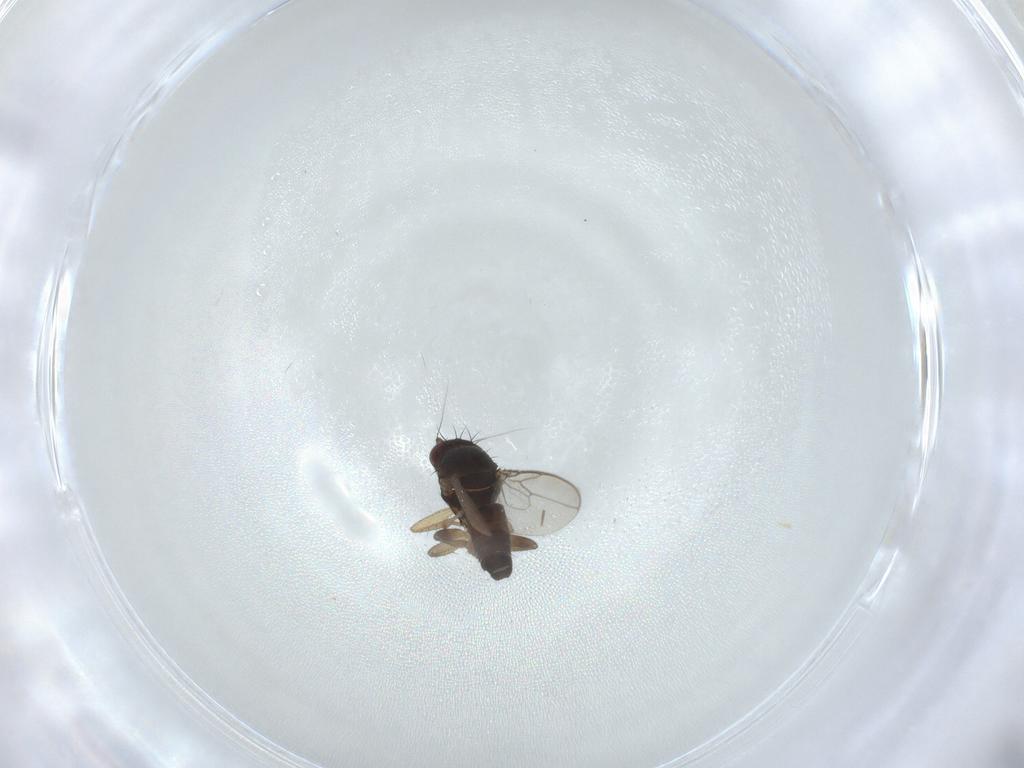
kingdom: Animalia
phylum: Arthropoda
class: Insecta
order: Diptera
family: Sphaeroceridae
